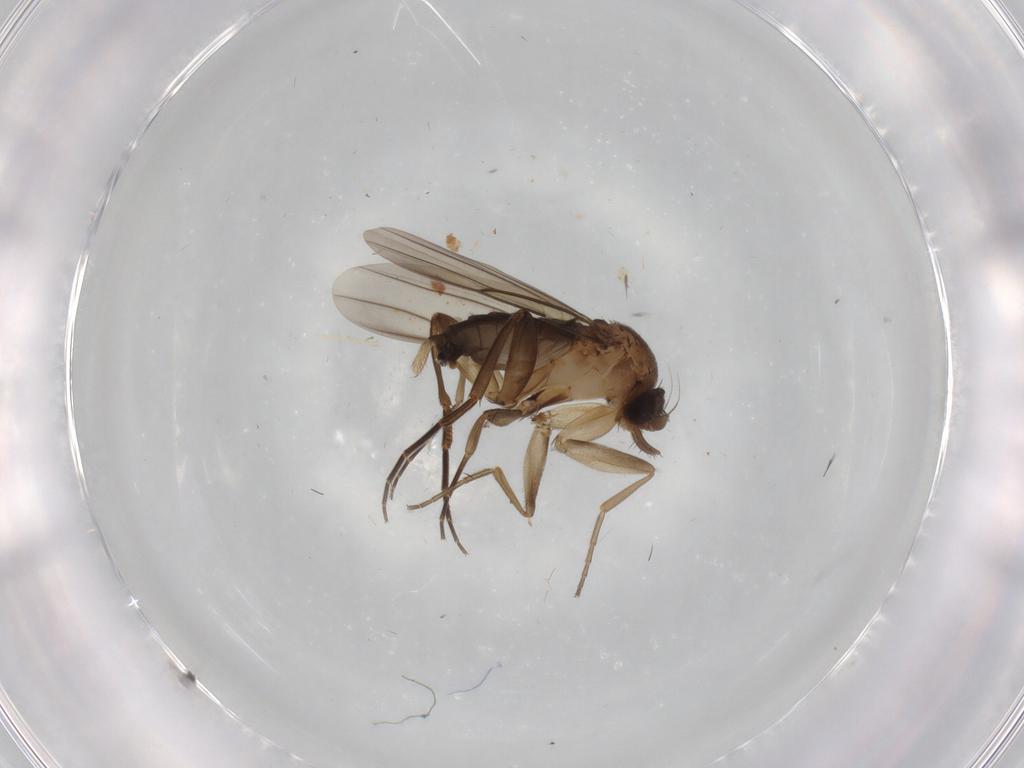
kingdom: Animalia
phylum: Arthropoda
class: Insecta
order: Diptera
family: Phoridae
